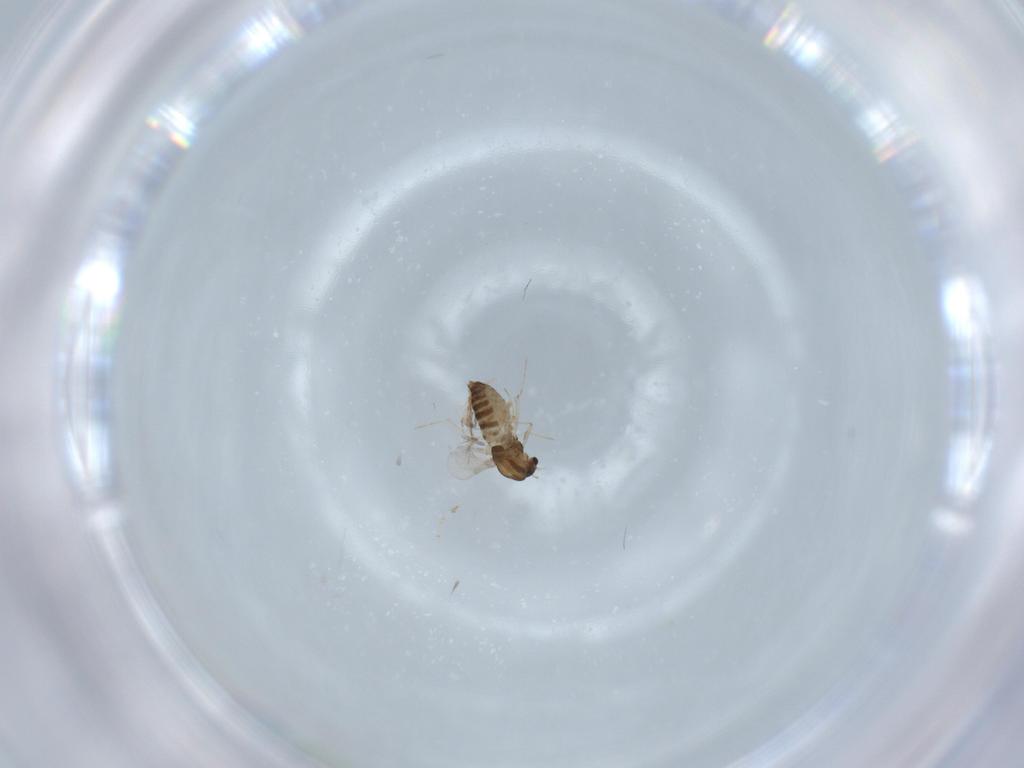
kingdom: Animalia
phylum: Arthropoda
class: Insecta
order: Diptera
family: Chironomidae
